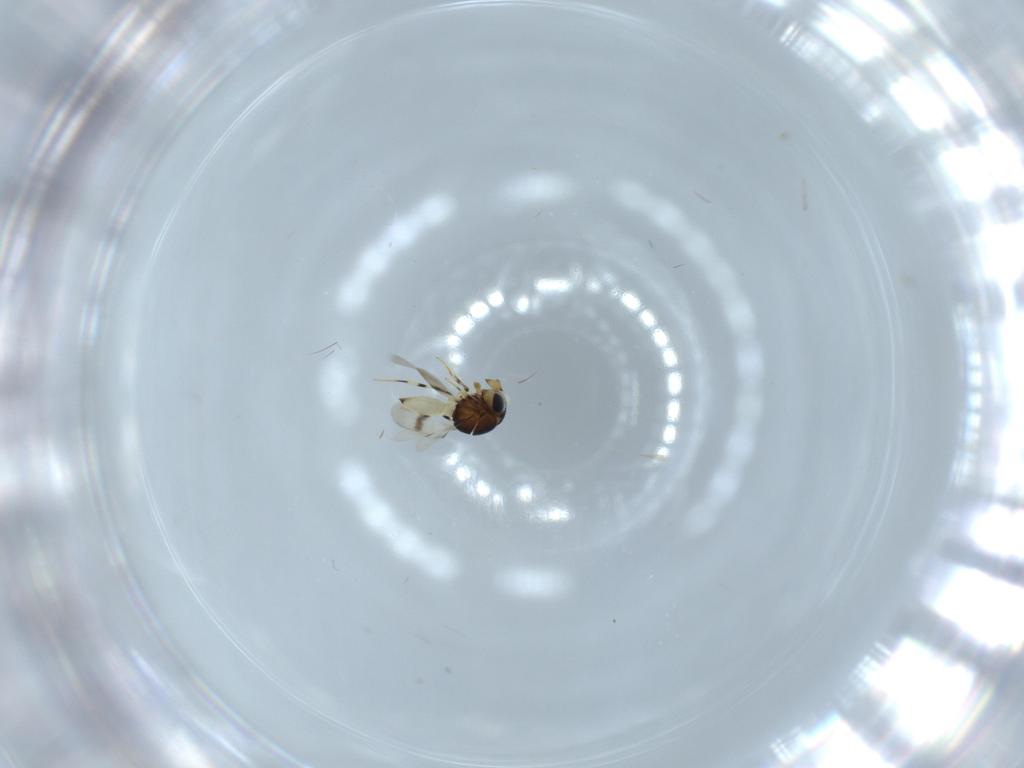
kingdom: Animalia
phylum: Arthropoda
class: Insecta
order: Hymenoptera
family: Scelionidae
